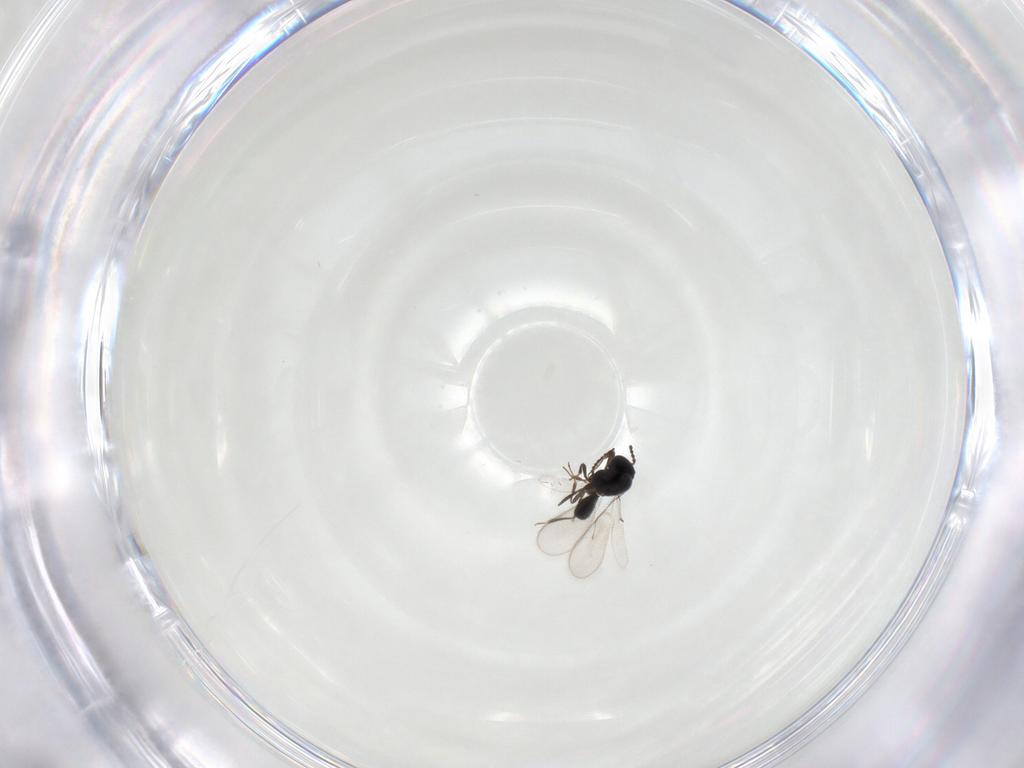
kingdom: Animalia
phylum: Arthropoda
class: Insecta
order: Hymenoptera
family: Scelionidae
